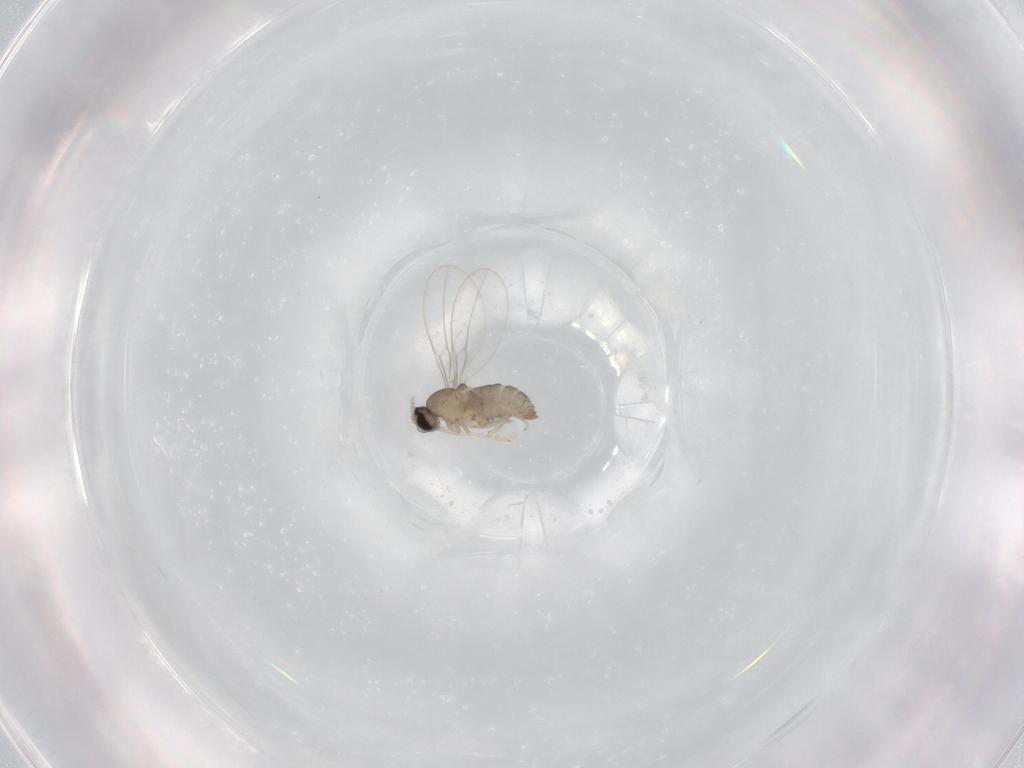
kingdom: Animalia
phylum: Arthropoda
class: Insecta
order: Diptera
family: Sciaridae
